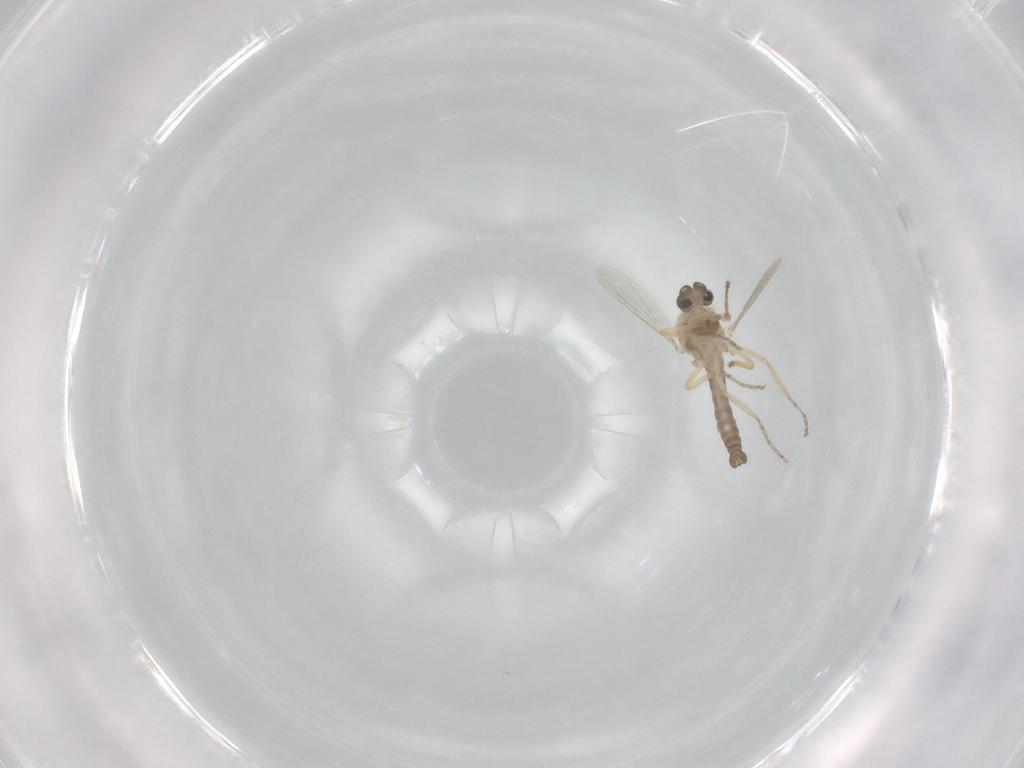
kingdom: Animalia
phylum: Arthropoda
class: Insecta
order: Diptera
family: Ceratopogonidae
